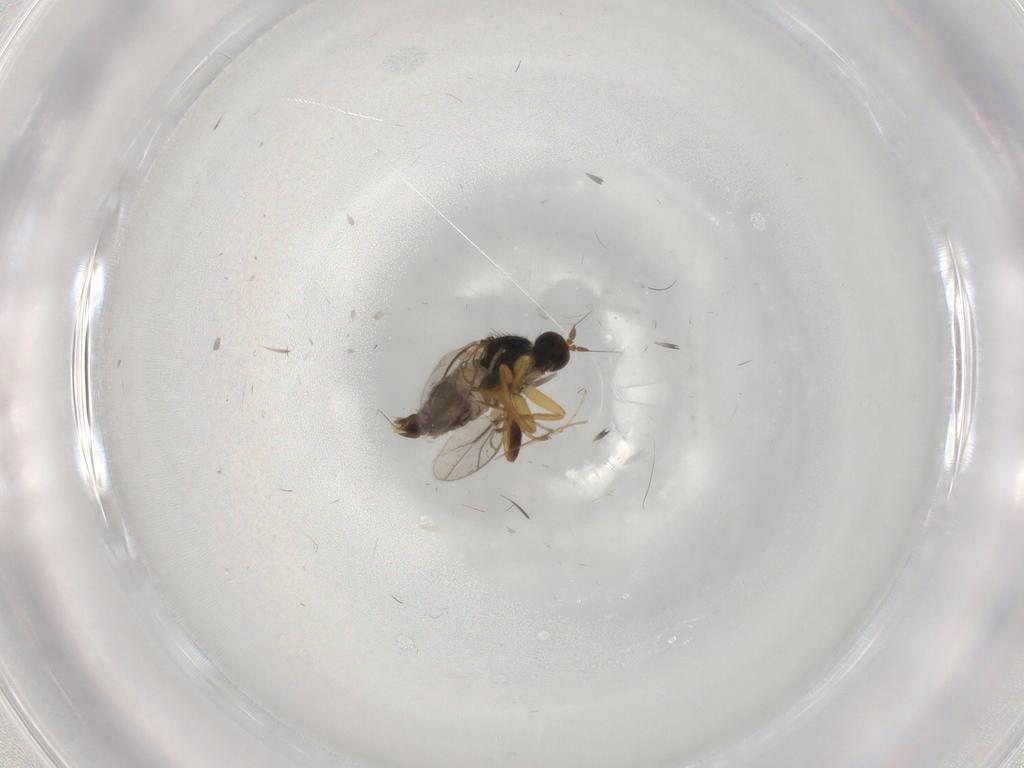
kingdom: Animalia
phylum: Arthropoda
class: Insecta
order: Diptera
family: Hybotidae
